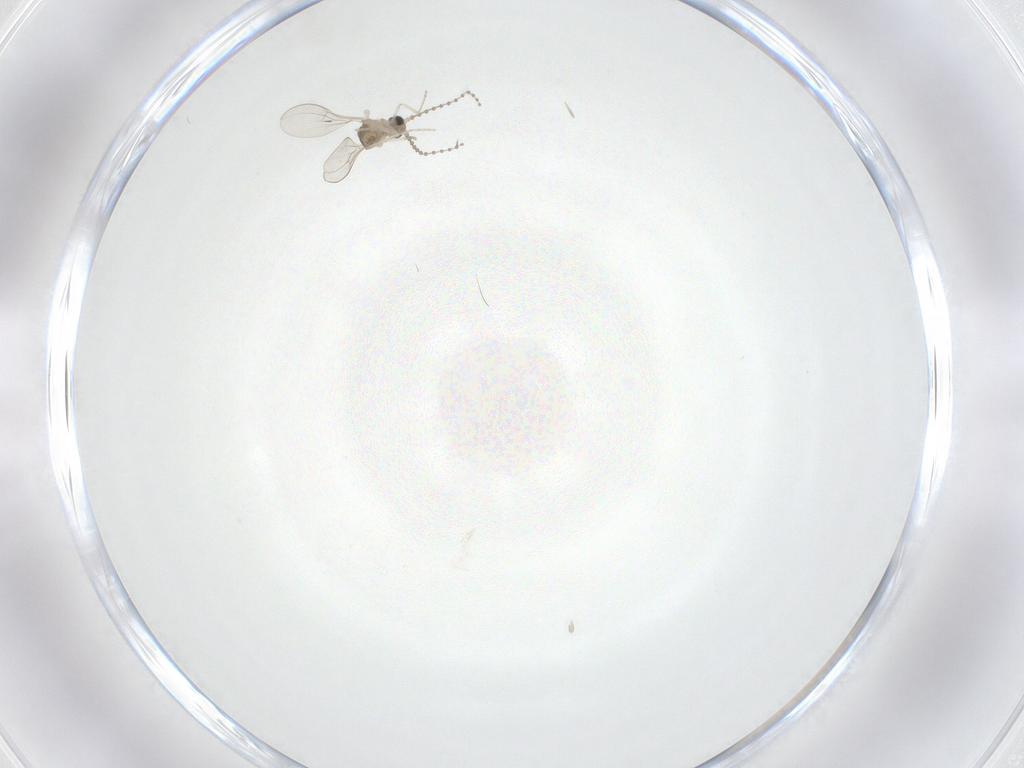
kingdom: Animalia
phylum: Arthropoda
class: Insecta
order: Diptera
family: Cecidomyiidae
